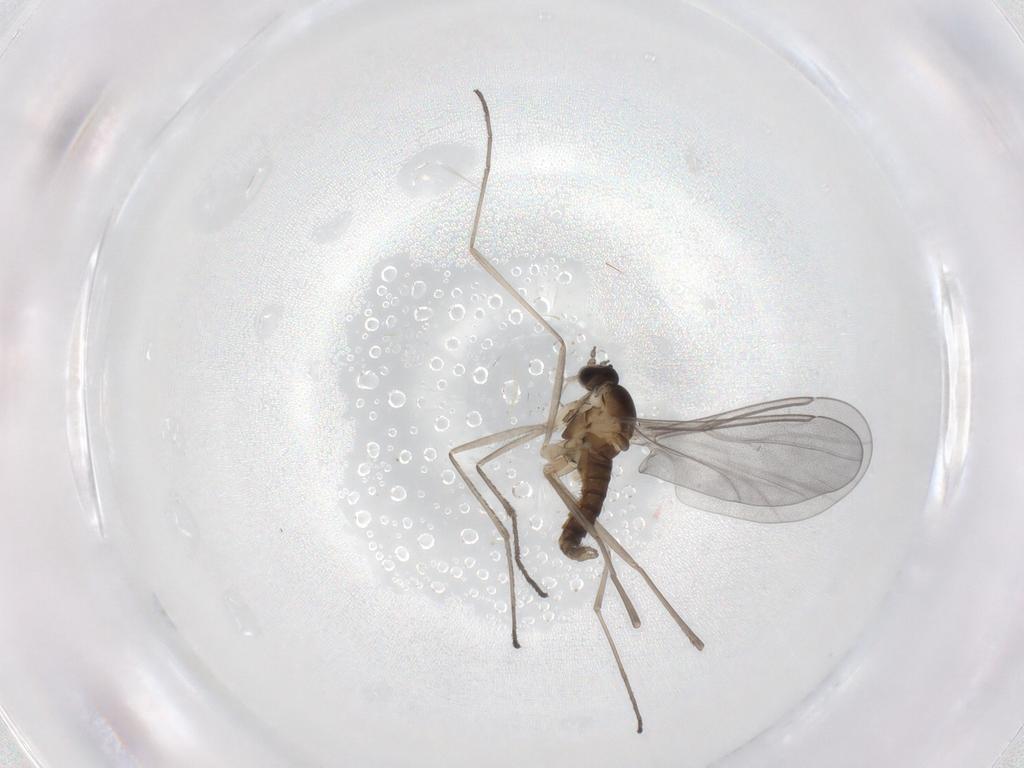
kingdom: Animalia
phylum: Arthropoda
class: Insecta
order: Diptera
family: Cecidomyiidae
